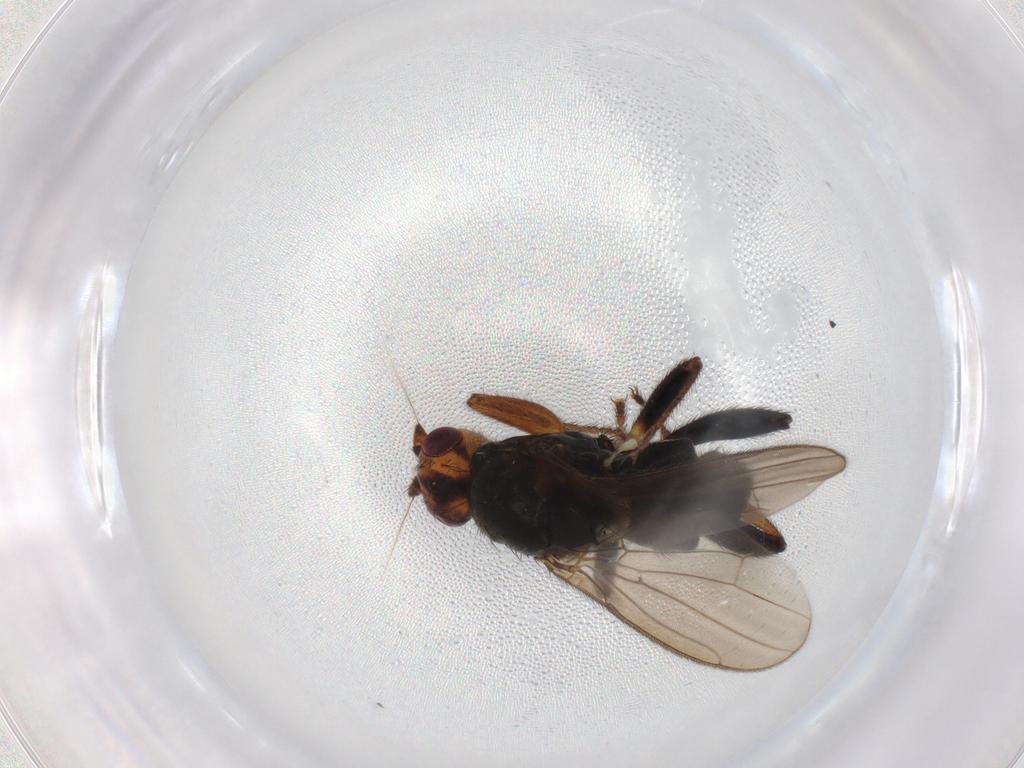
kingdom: Animalia
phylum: Arthropoda
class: Insecta
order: Diptera
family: Sphaeroceridae
